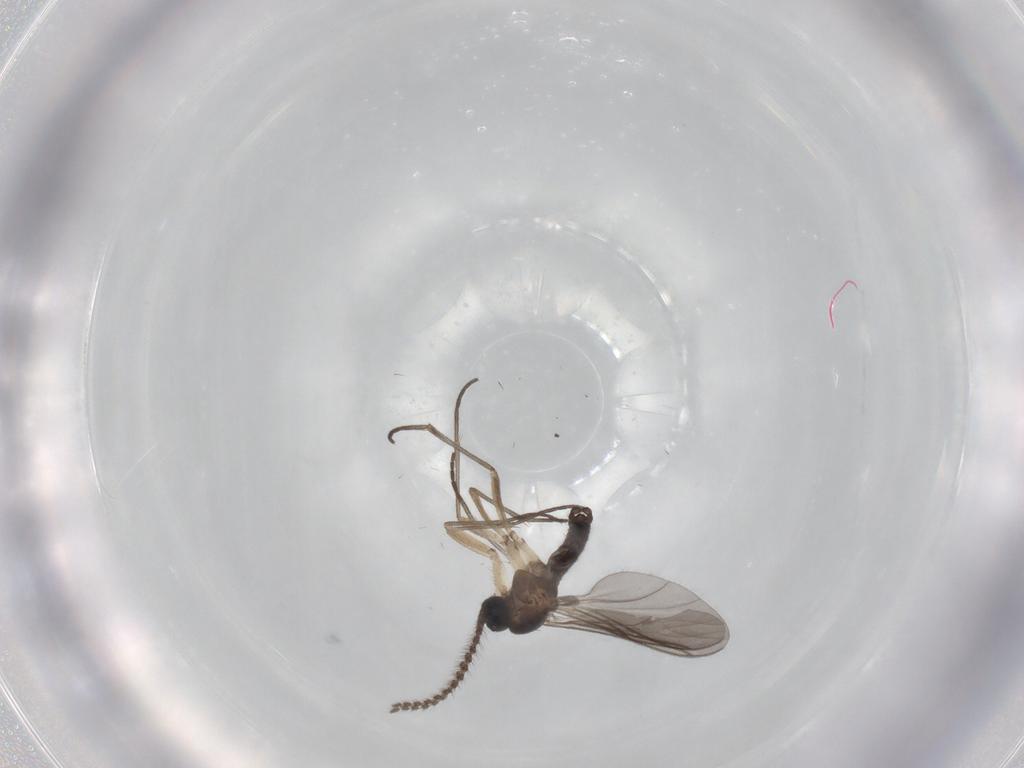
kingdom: Animalia
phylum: Arthropoda
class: Insecta
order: Diptera
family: Sciaridae
